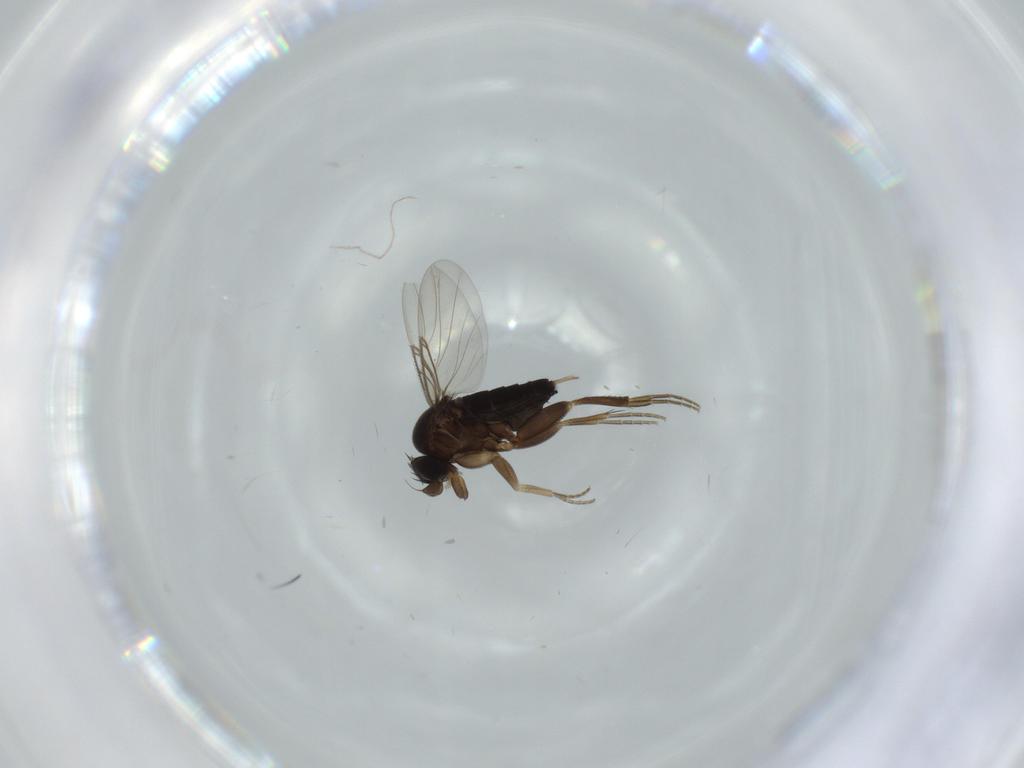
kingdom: Animalia
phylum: Arthropoda
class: Insecta
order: Diptera
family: Phoridae
